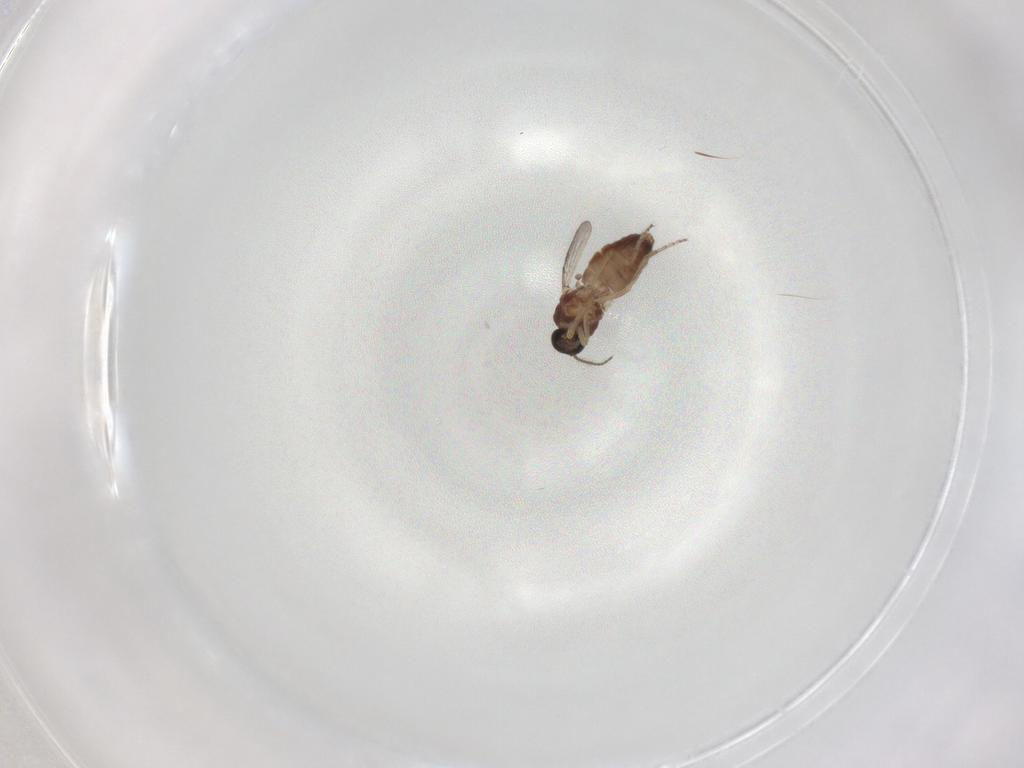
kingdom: Animalia
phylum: Arthropoda
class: Insecta
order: Diptera
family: Ceratopogonidae
